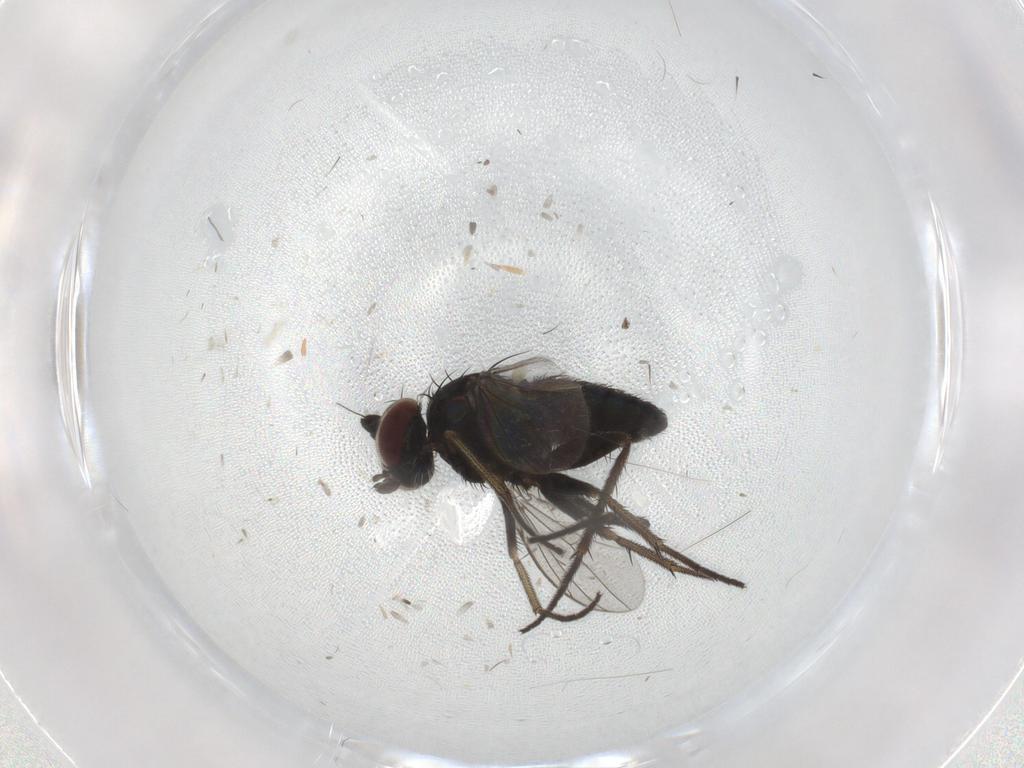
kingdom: Animalia
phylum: Arthropoda
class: Insecta
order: Diptera
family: Dolichopodidae
